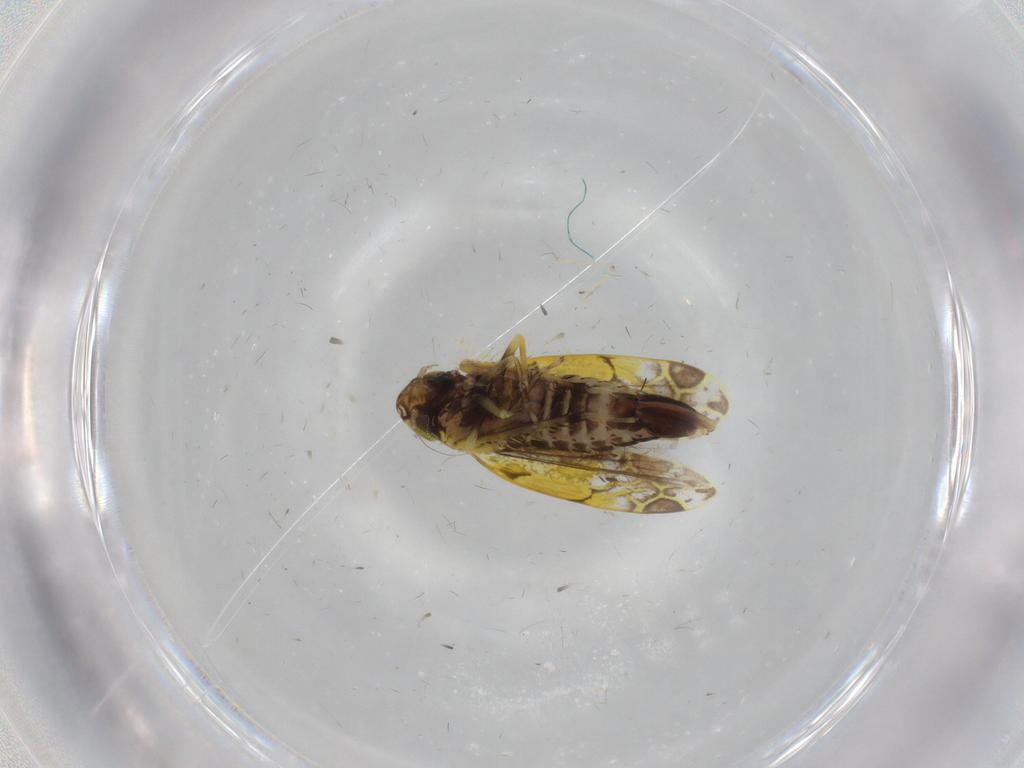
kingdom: Animalia
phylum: Arthropoda
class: Insecta
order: Hemiptera
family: Cicadellidae
